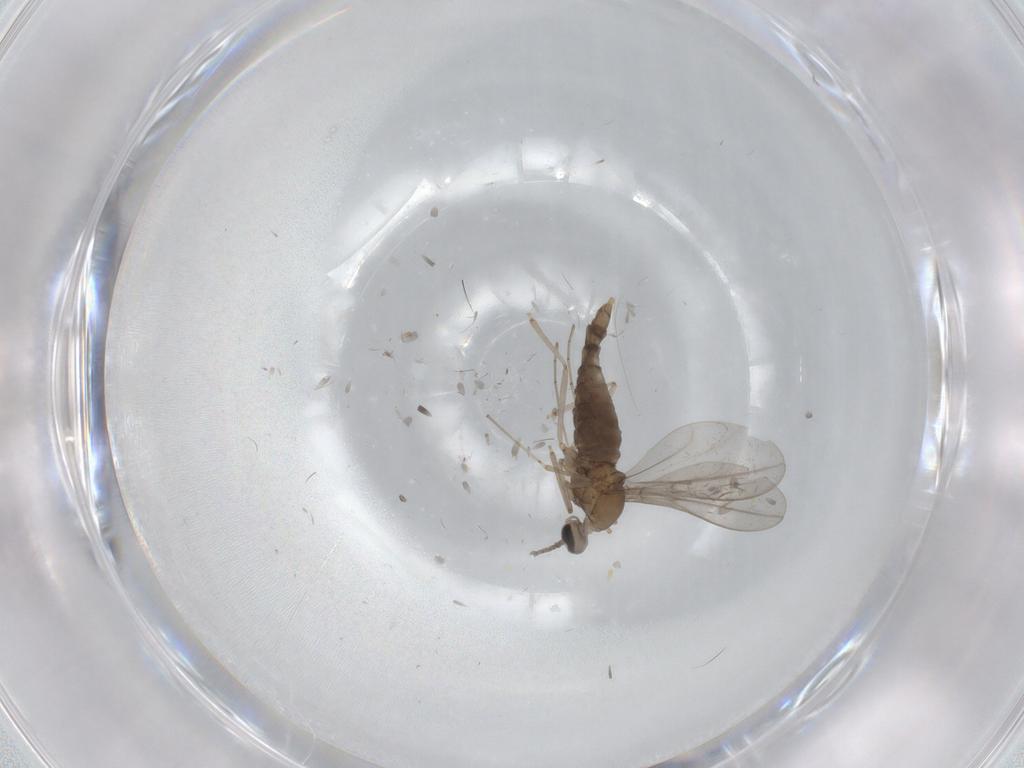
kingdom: Animalia
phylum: Arthropoda
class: Insecta
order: Diptera
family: Cecidomyiidae
